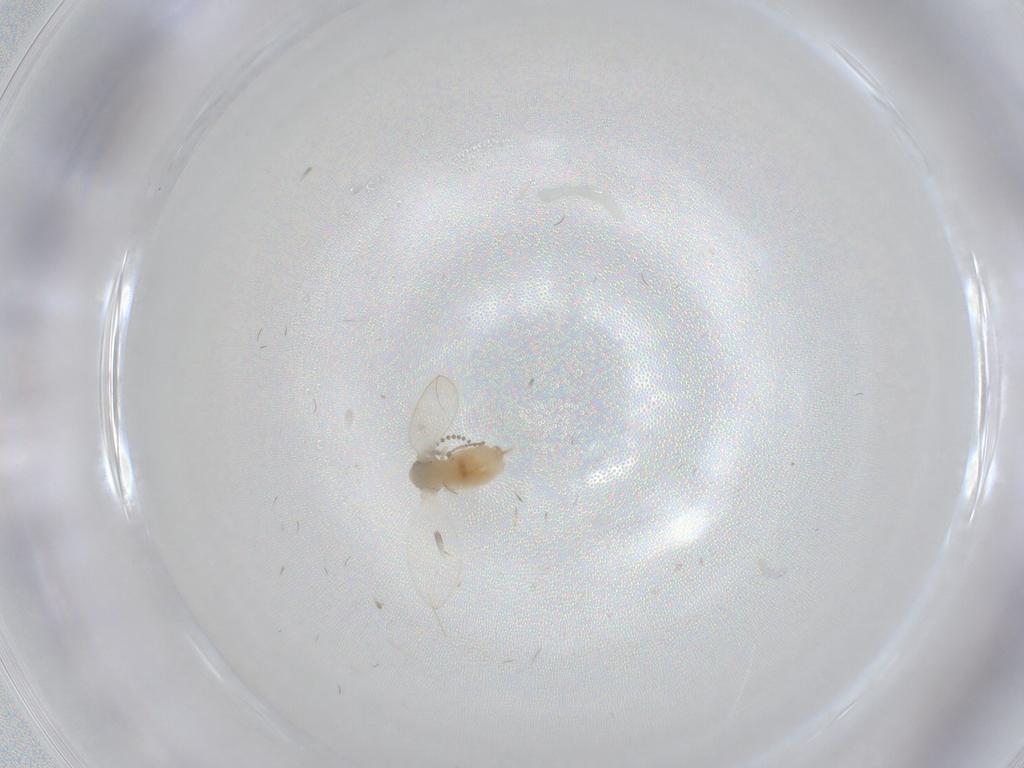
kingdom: Animalia
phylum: Arthropoda
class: Insecta
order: Diptera
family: Psychodidae
